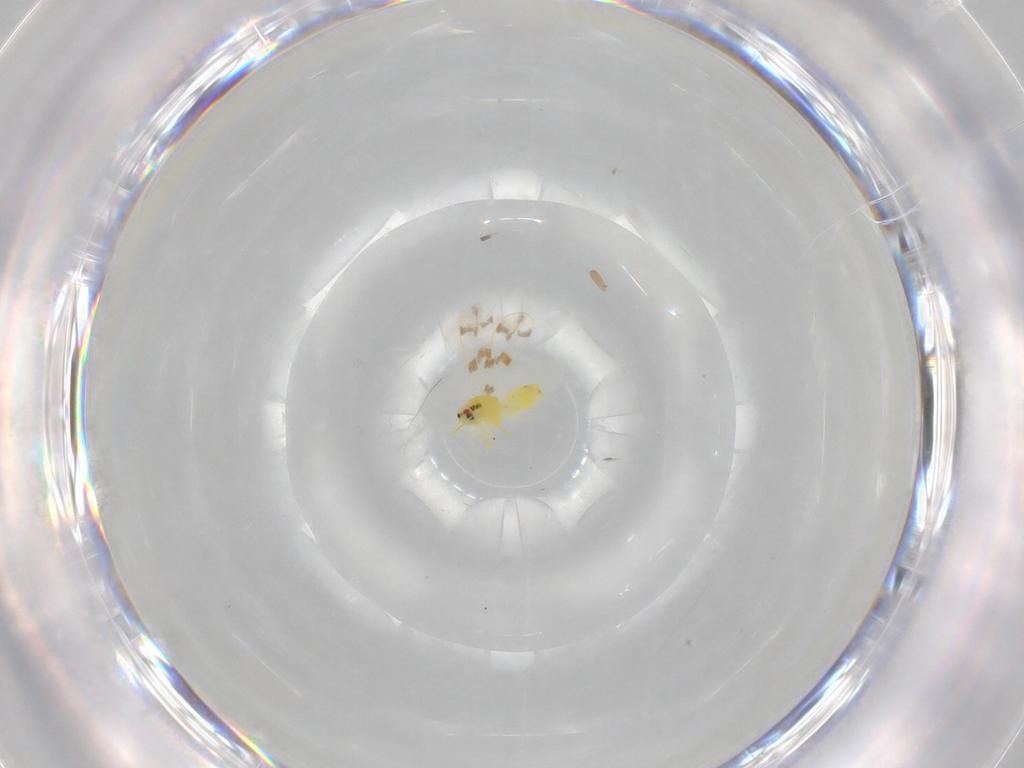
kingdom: Animalia
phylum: Arthropoda
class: Insecta
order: Hemiptera
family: Aleyrodidae
